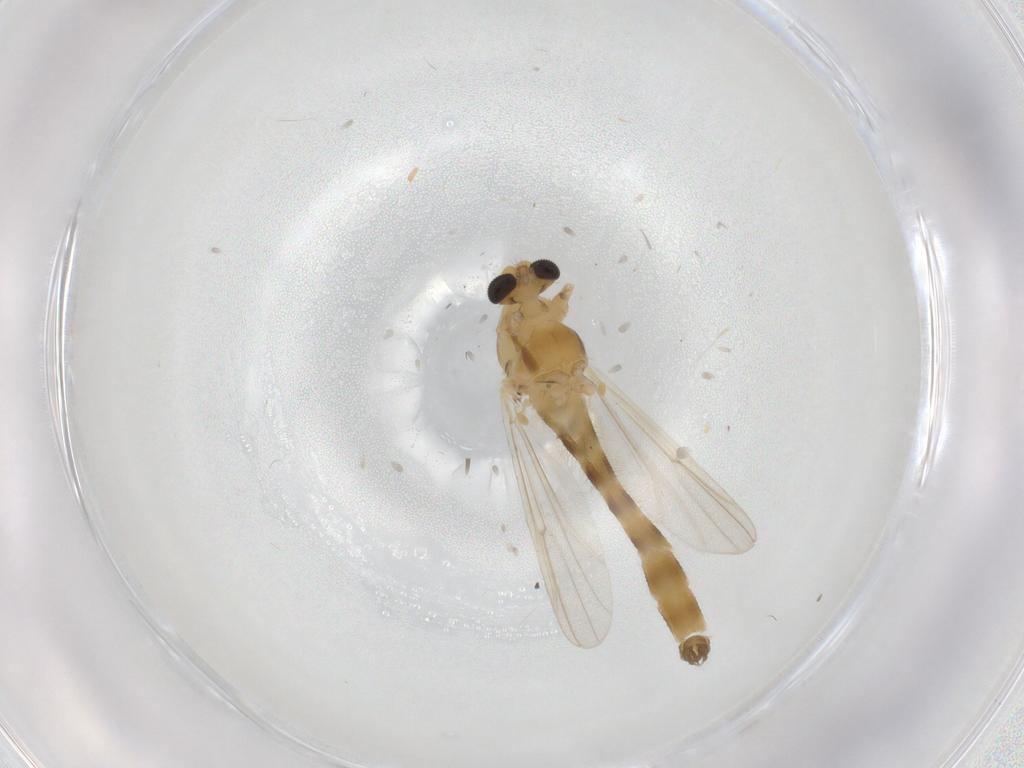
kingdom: Animalia
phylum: Arthropoda
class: Insecta
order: Diptera
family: Chironomidae
